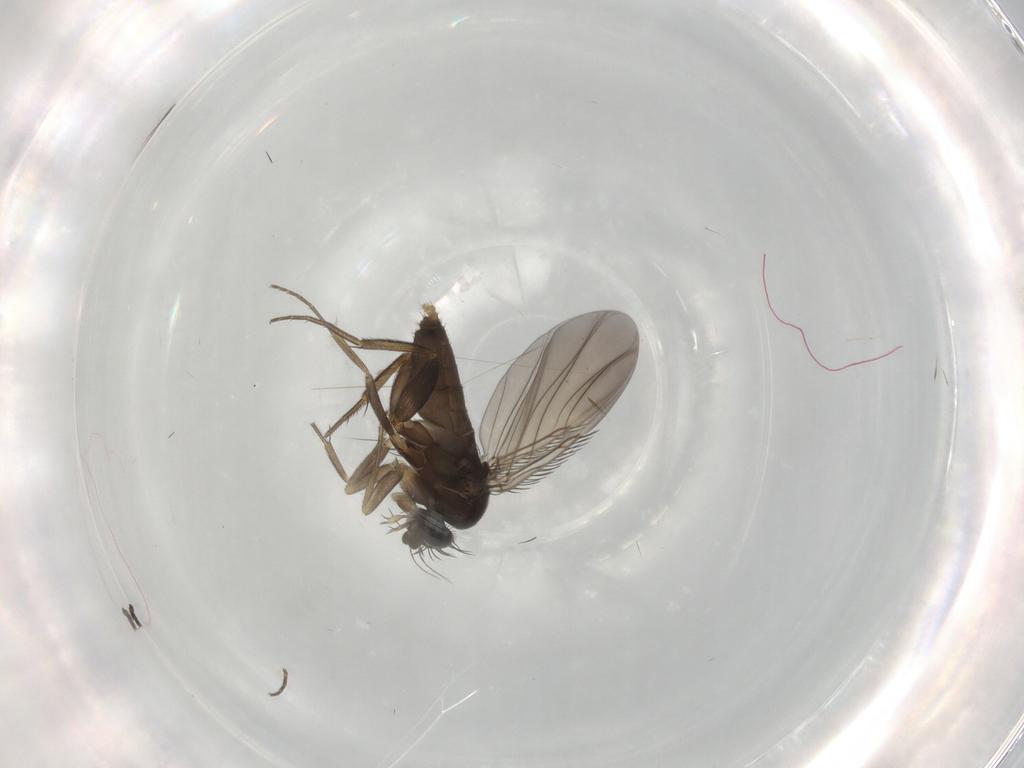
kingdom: Animalia
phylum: Arthropoda
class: Insecta
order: Diptera
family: Phoridae
